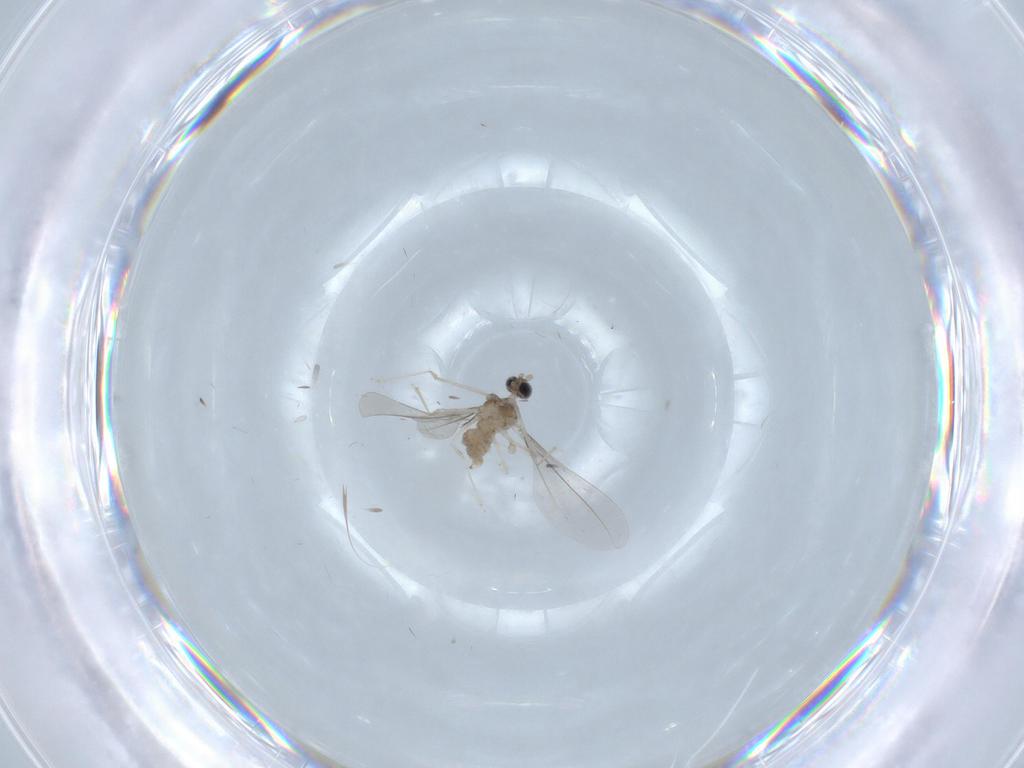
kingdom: Animalia
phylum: Arthropoda
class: Insecta
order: Diptera
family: Cecidomyiidae
